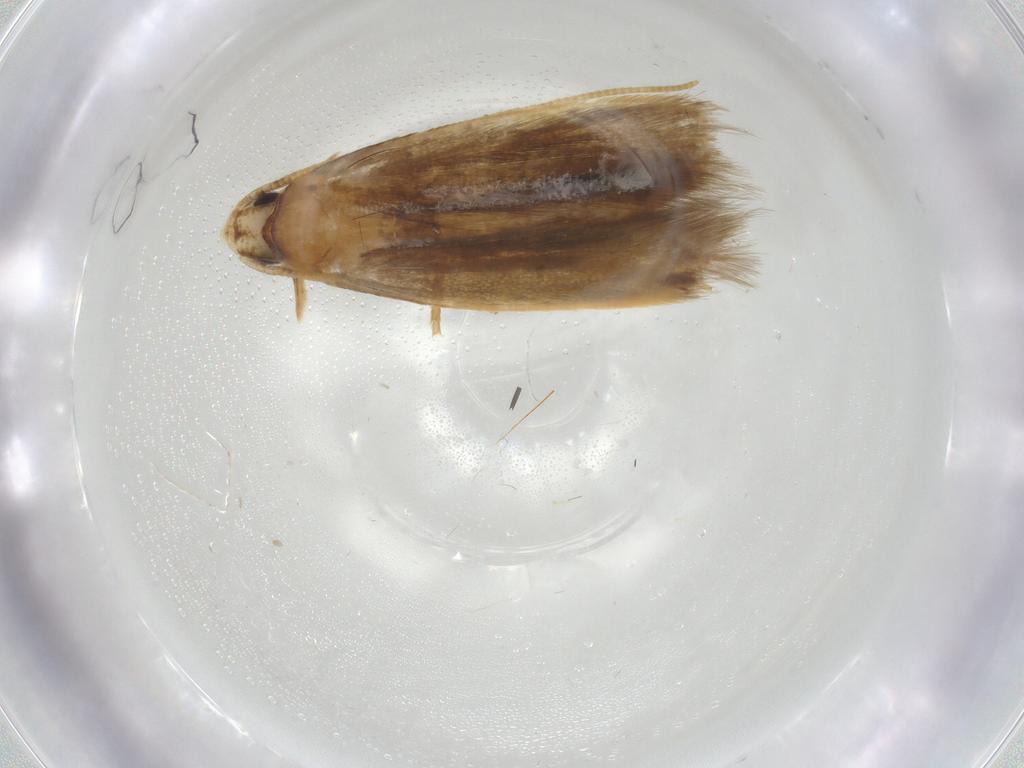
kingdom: Animalia
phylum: Arthropoda
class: Insecta
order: Lepidoptera
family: Tineidae
